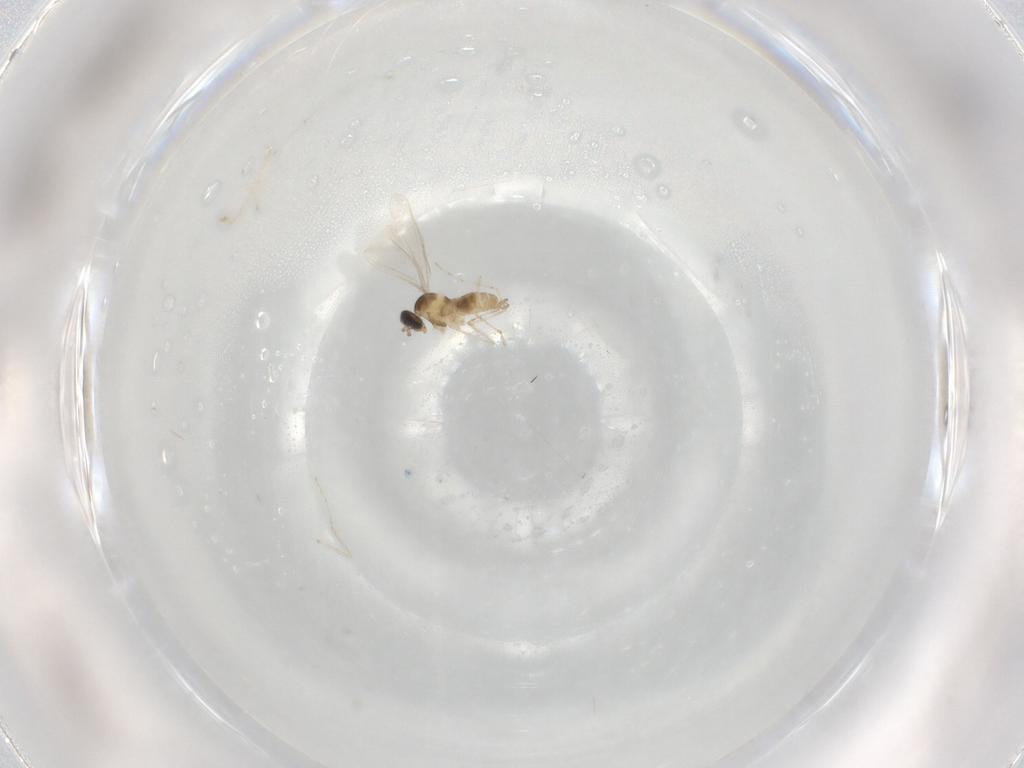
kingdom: Animalia
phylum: Arthropoda
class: Insecta
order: Diptera
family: Cecidomyiidae
